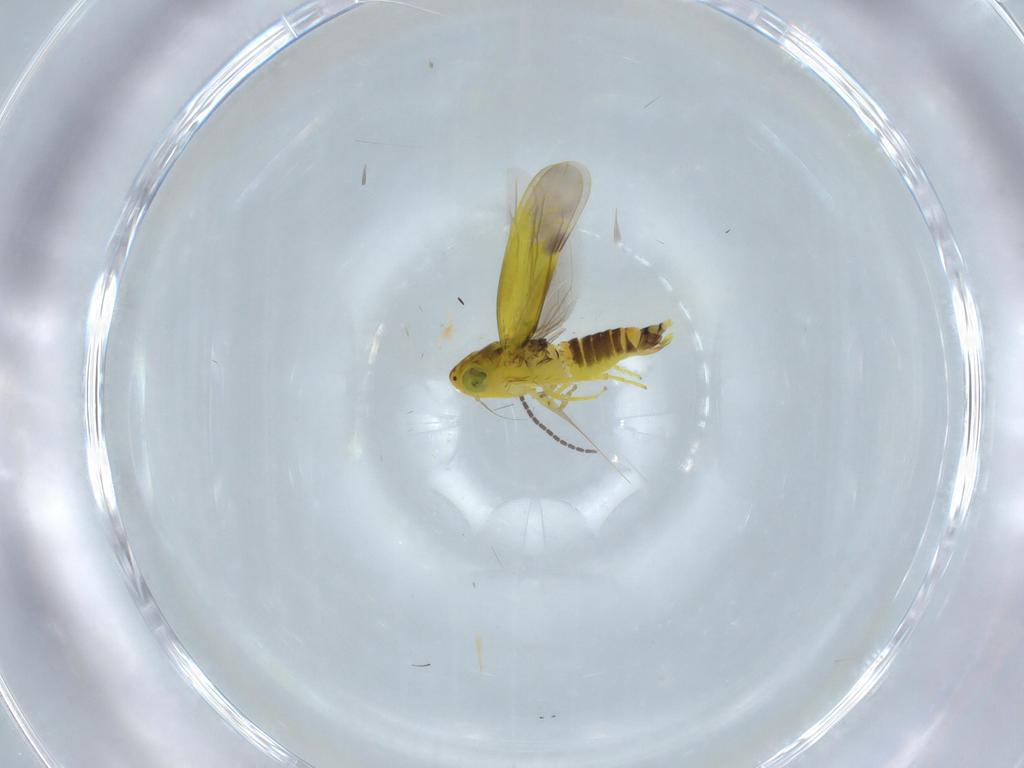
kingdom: Animalia
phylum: Arthropoda
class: Insecta
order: Hemiptera
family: Cicadellidae
